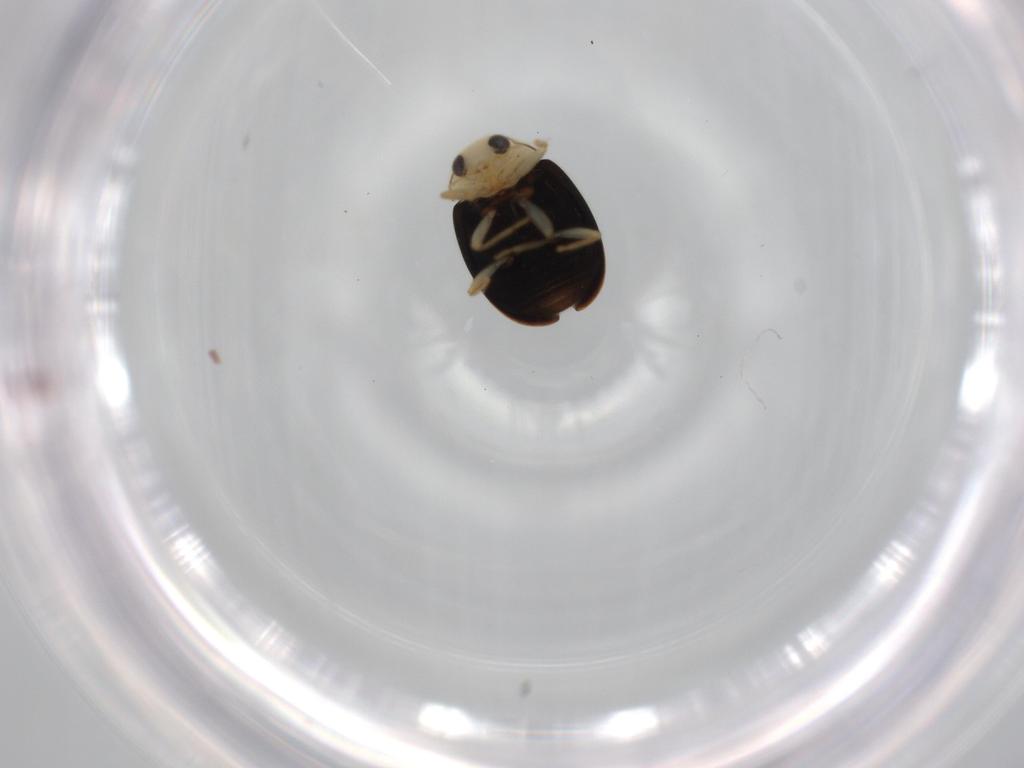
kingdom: Animalia
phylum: Arthropoda
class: Insecta
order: Coleoptera
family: Coccinellidae
